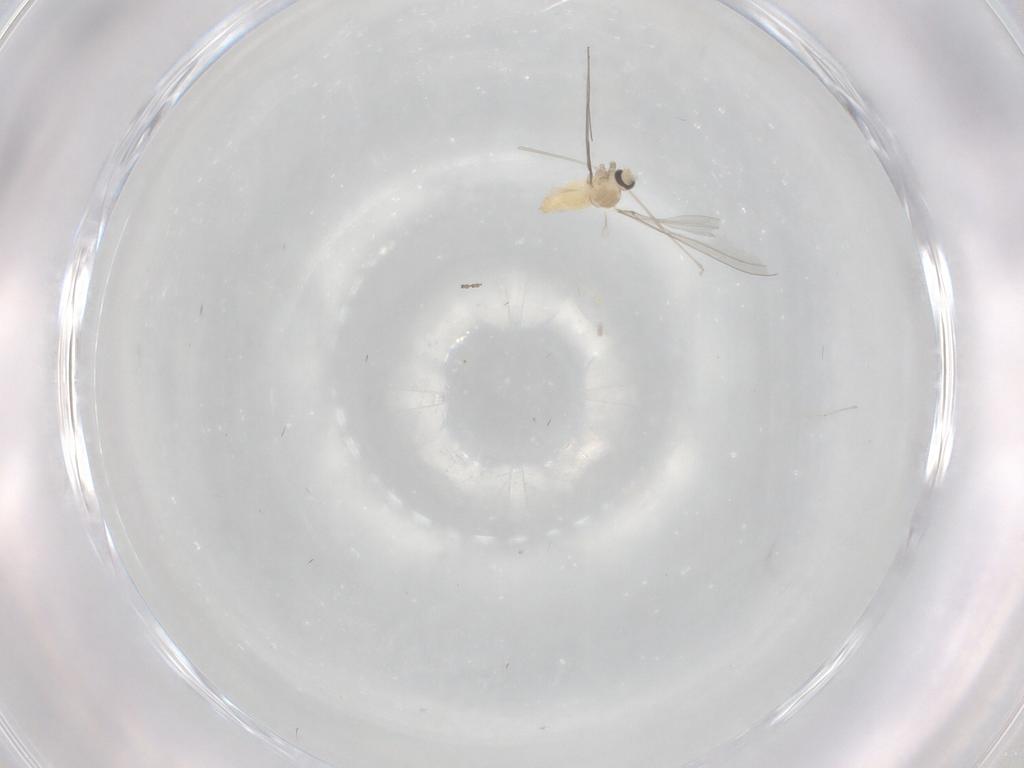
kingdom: Animalia
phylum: Arthropoda
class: Insecta
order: Diptera
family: Cecidomyiidae
